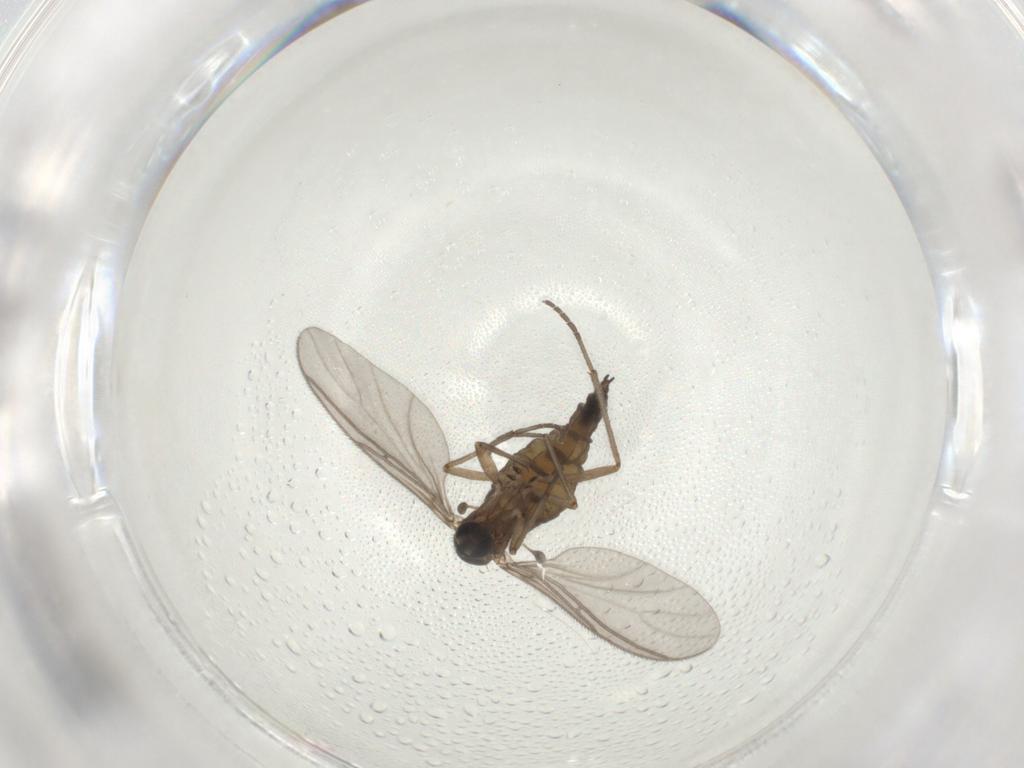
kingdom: Animalia
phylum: Arthropoda
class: Insecta
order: Diptera
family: Sciaridae
